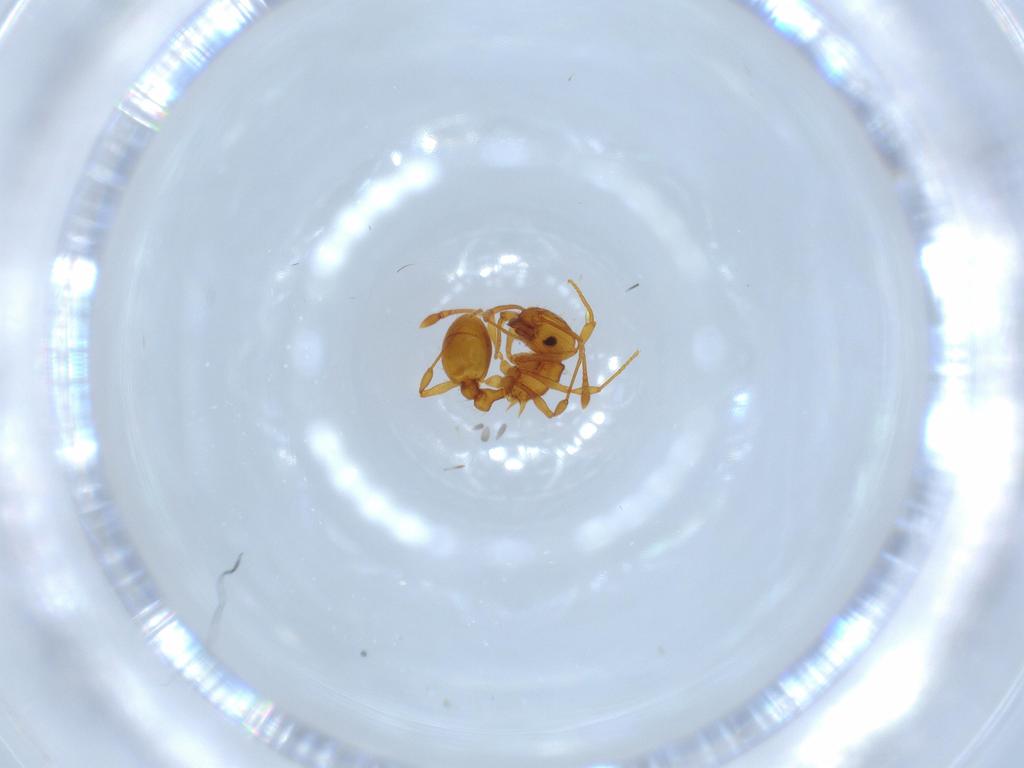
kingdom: Animalia
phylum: Arthropoda
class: Insecta
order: Hymenoptera
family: Formicidae
